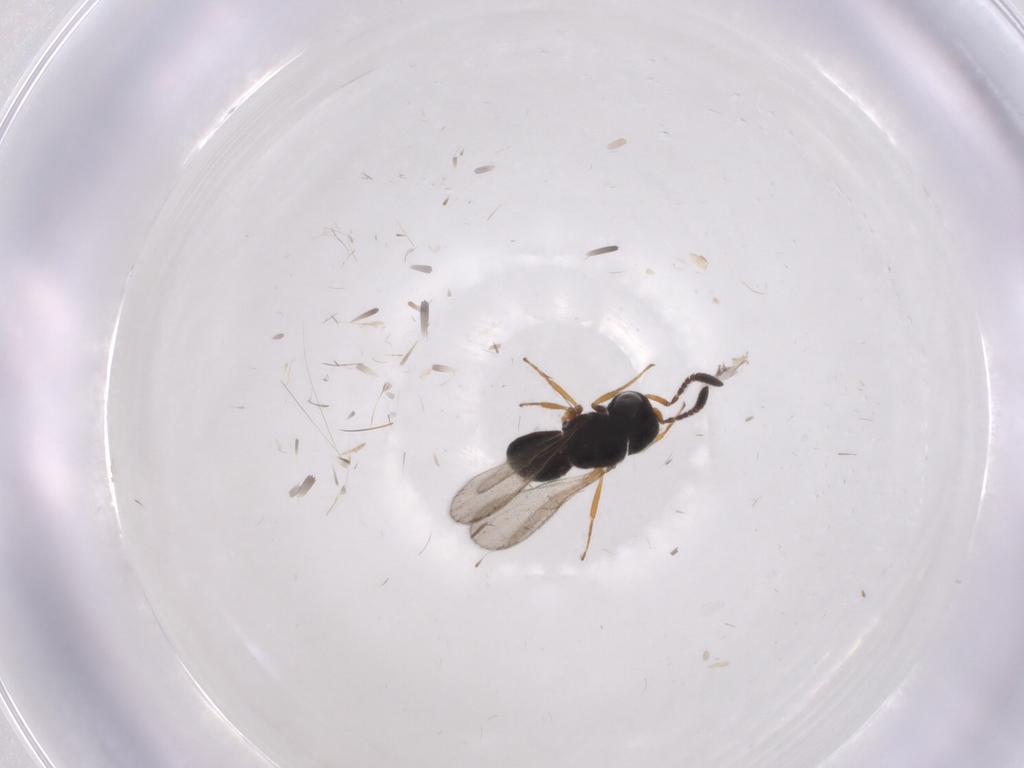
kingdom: Animalia
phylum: Arthropoda
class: Insecta
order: Hymenoptera
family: Scelionidae
